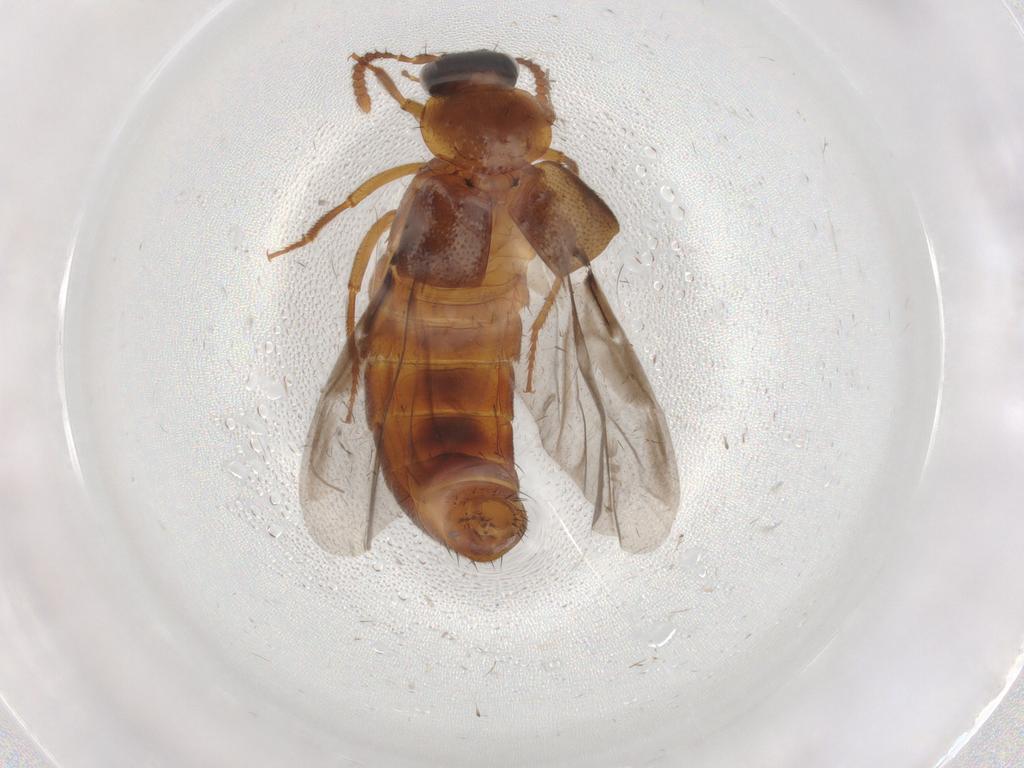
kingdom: Animalia
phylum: Arthropoda
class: Insecta
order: Coleoptera
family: Staphylinidae
